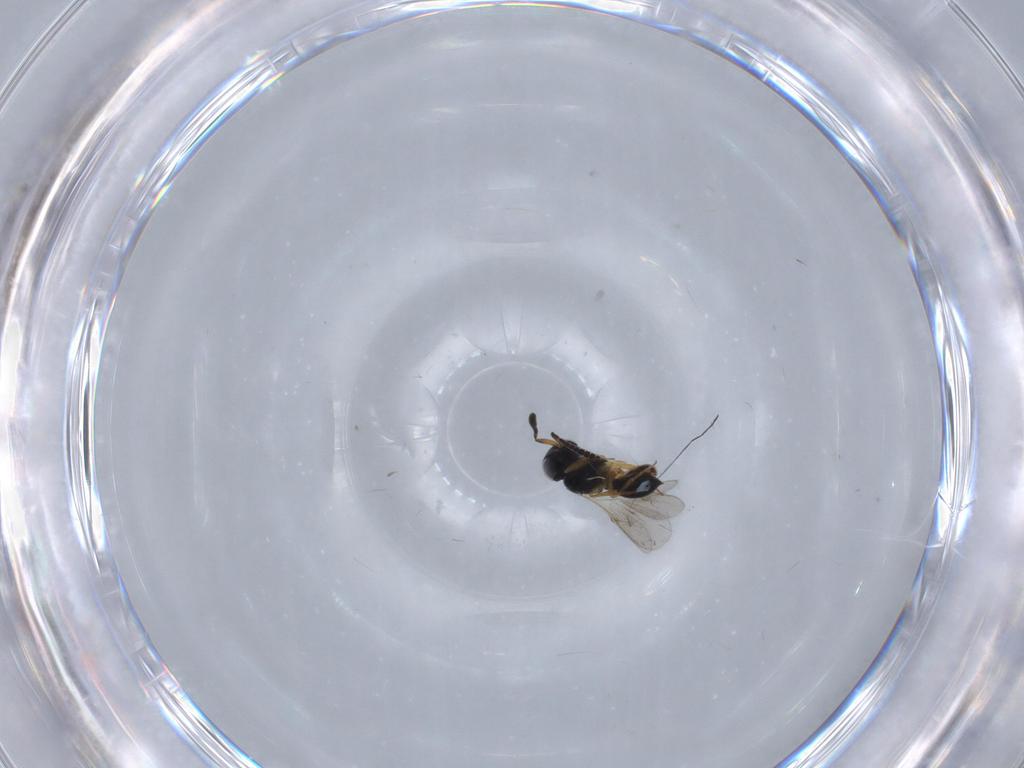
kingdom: Animalia
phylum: Arthropoda
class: Insecta
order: Hymenoptera
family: Scelionidae
